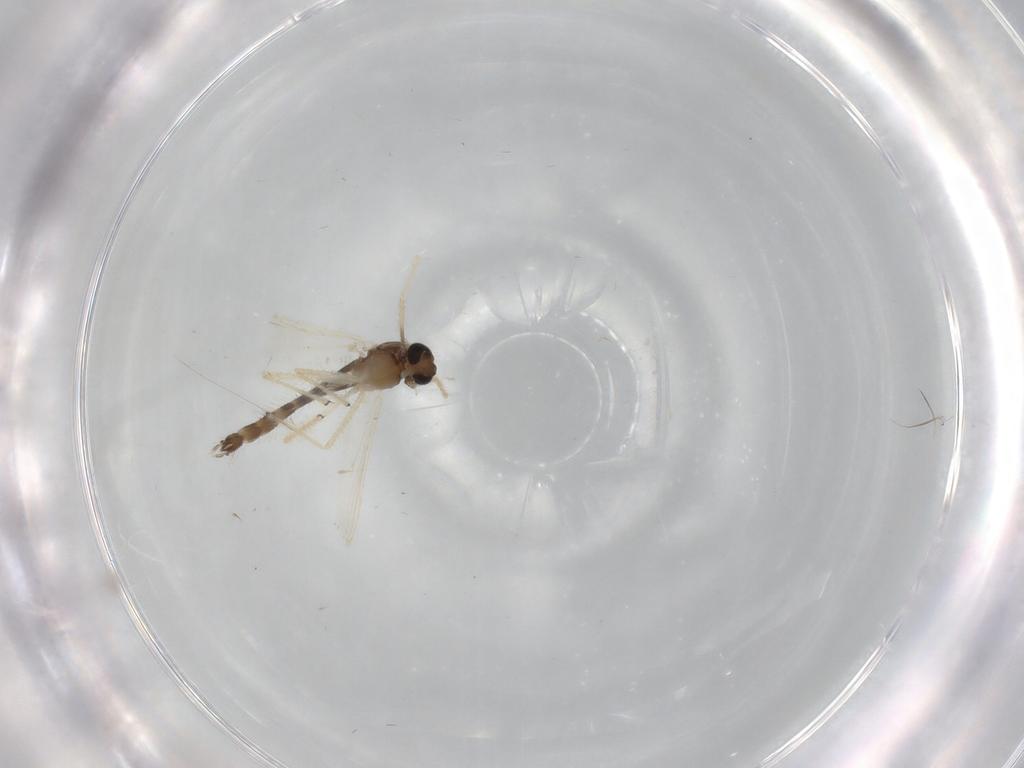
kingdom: Animalia
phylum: Arthropoda
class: Insecta
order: Diptera
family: Chironomidae
